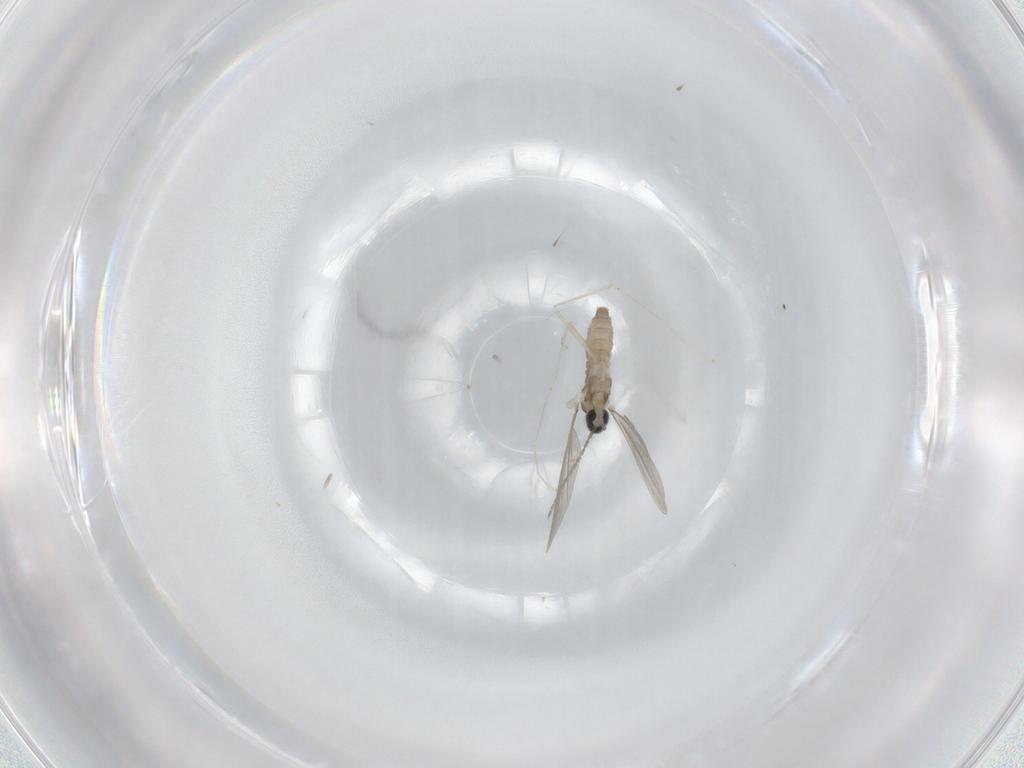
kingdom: Animalia
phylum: Arthropoda
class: Insecta
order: Diptera
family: Cecidomyiidae
